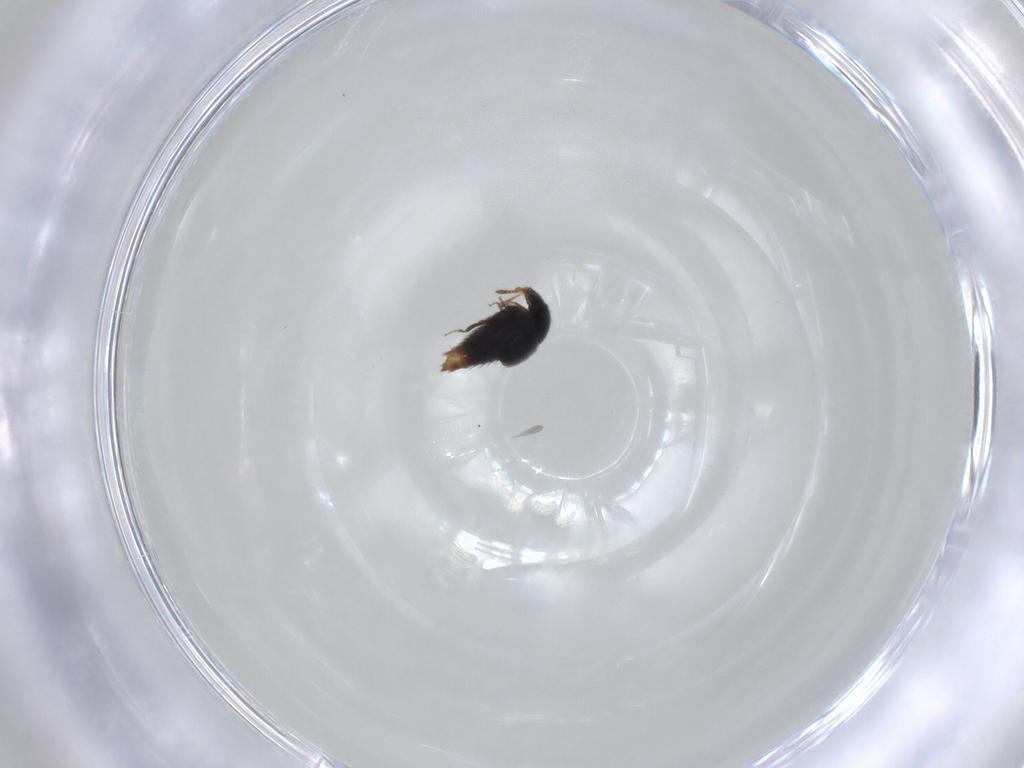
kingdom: Animalia
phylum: Arthropoda
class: Insecta
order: Coleoptera
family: Staphylinidae
